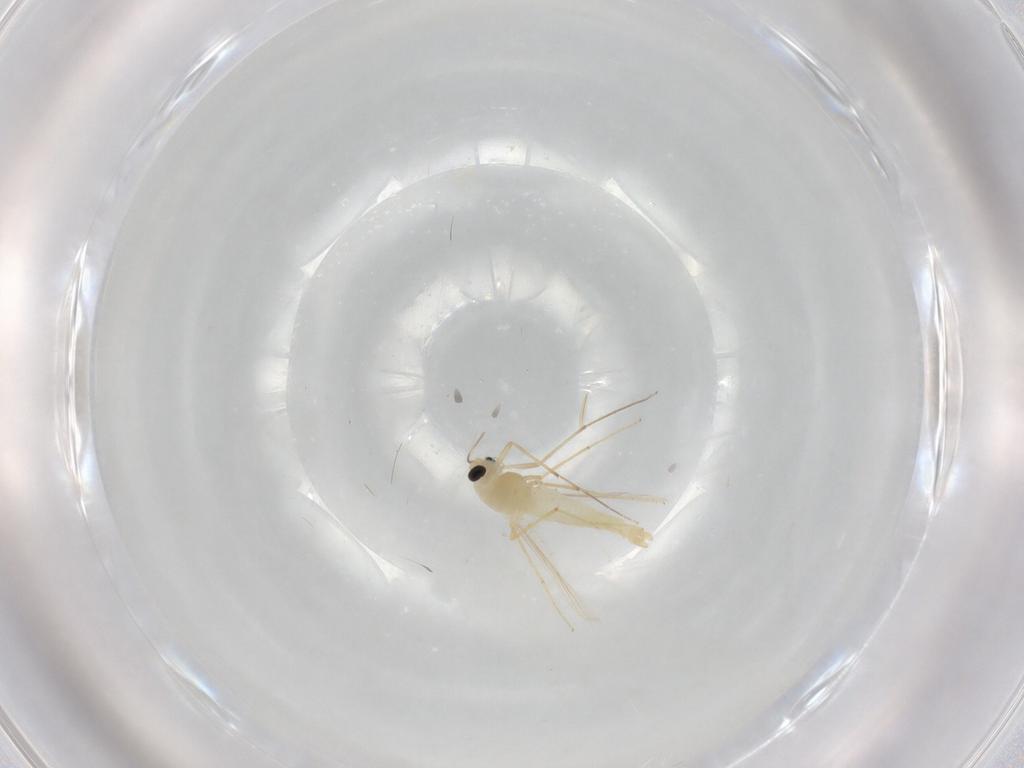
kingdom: Animalia
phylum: Arthropoda
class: Insecta
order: Diptera
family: Chironomidae
